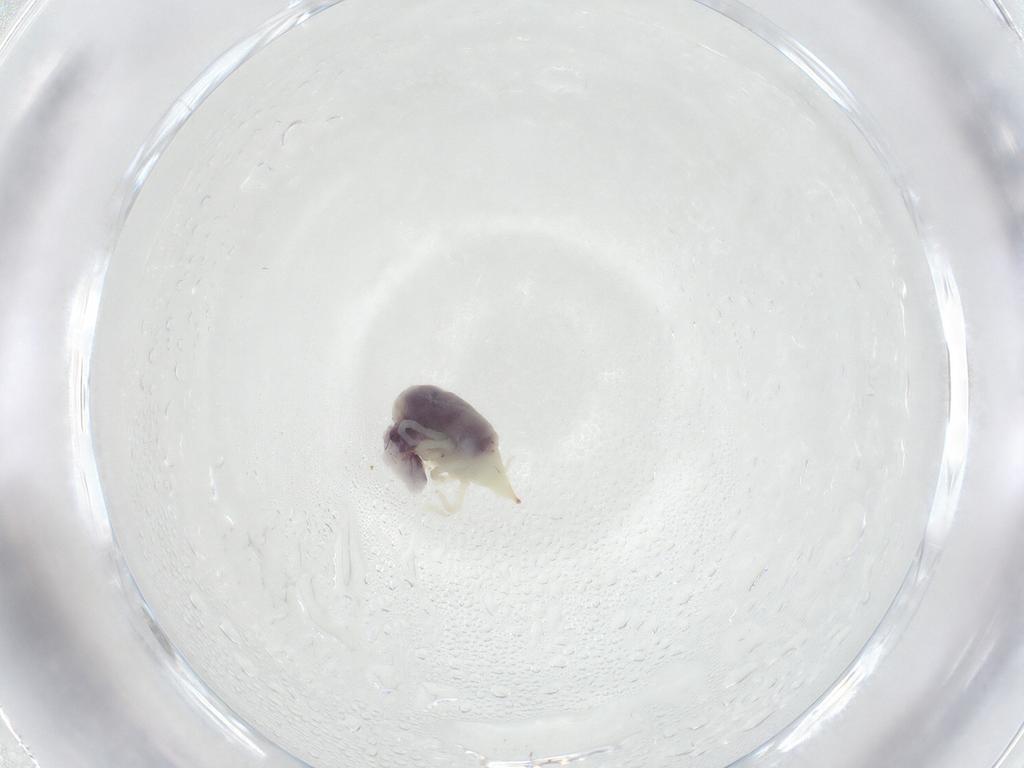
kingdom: Animalia
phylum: Arthropoda
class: Arachnida
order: Trombidiformes
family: Bdellidae
